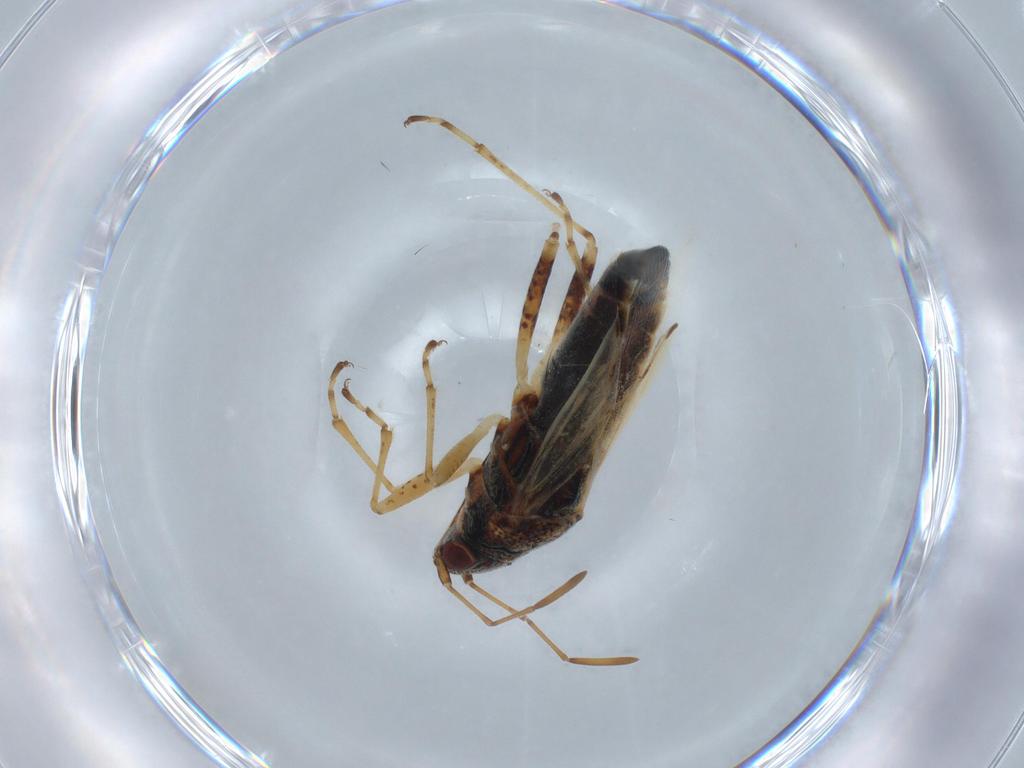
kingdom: Animalia
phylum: Arthropoda
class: Insecta
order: Hemiptera
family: Lygaeidae
